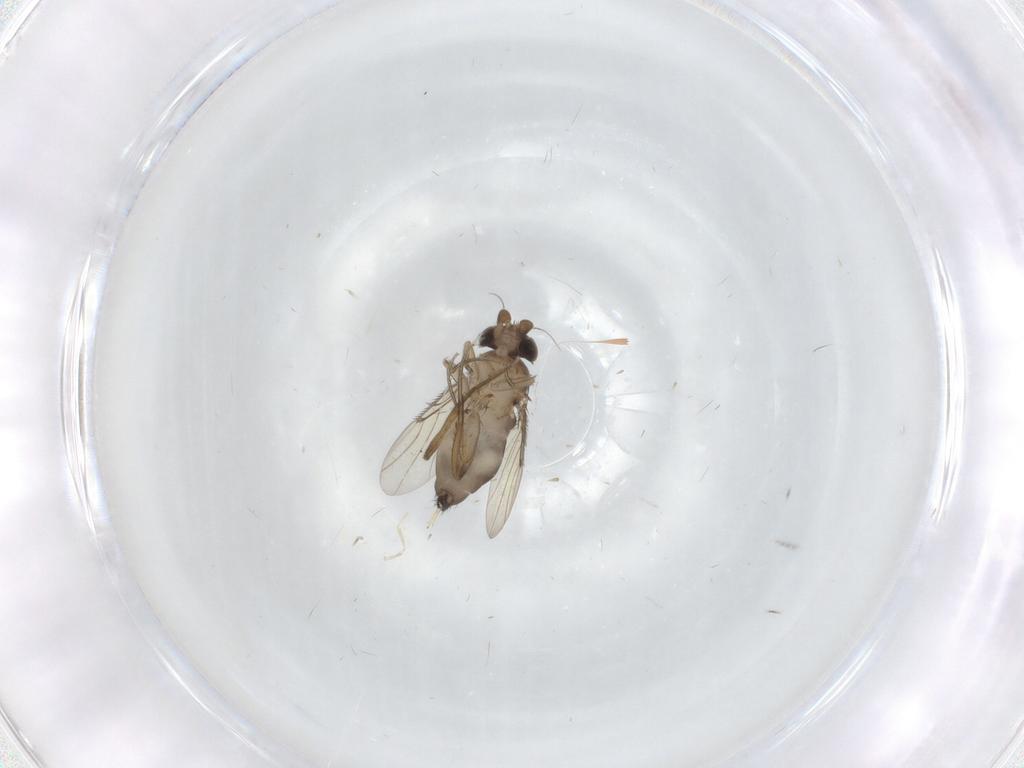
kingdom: Animalia
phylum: Arthropoda
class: Insecta
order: Diptera
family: Phoridae
